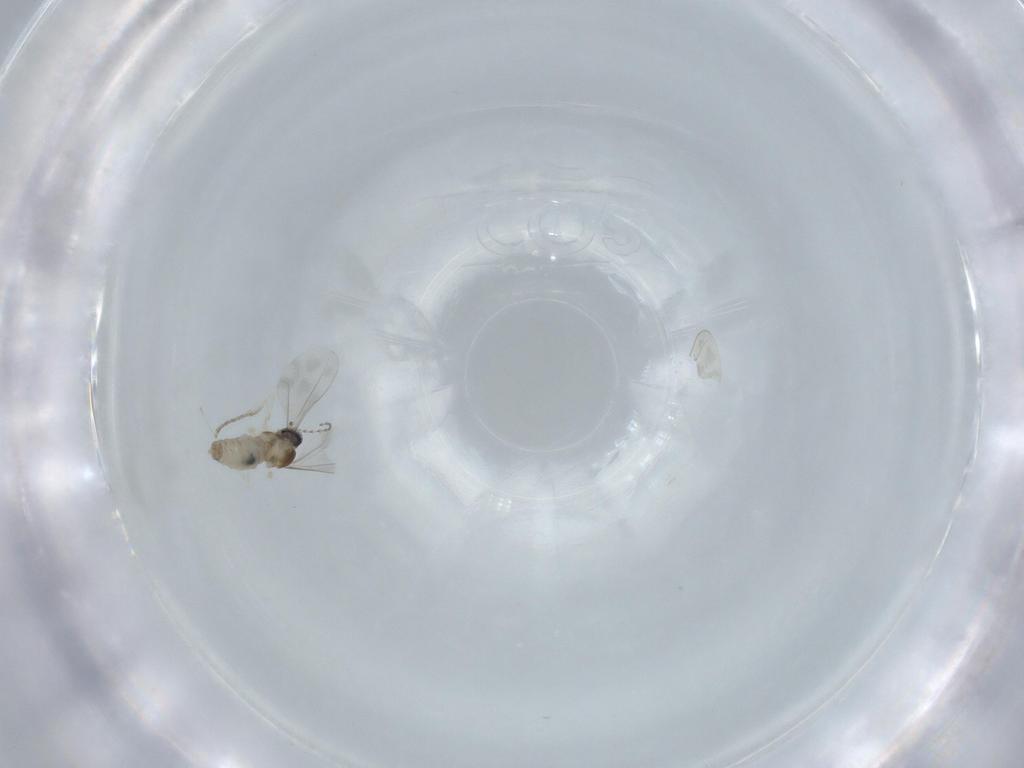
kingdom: Animalia
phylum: Arthropoda
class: Insecta
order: Diptera
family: Cecidomyiidae
